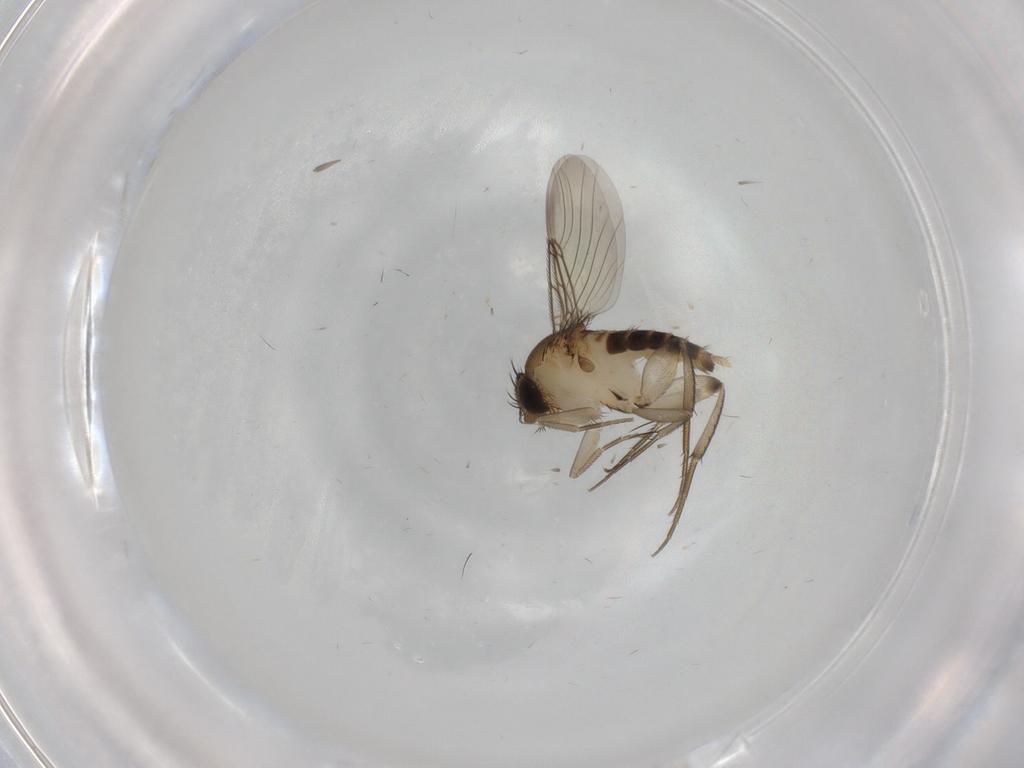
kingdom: Animalia
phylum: Arthropoda
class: Insecta
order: Diptera
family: Phoridae
